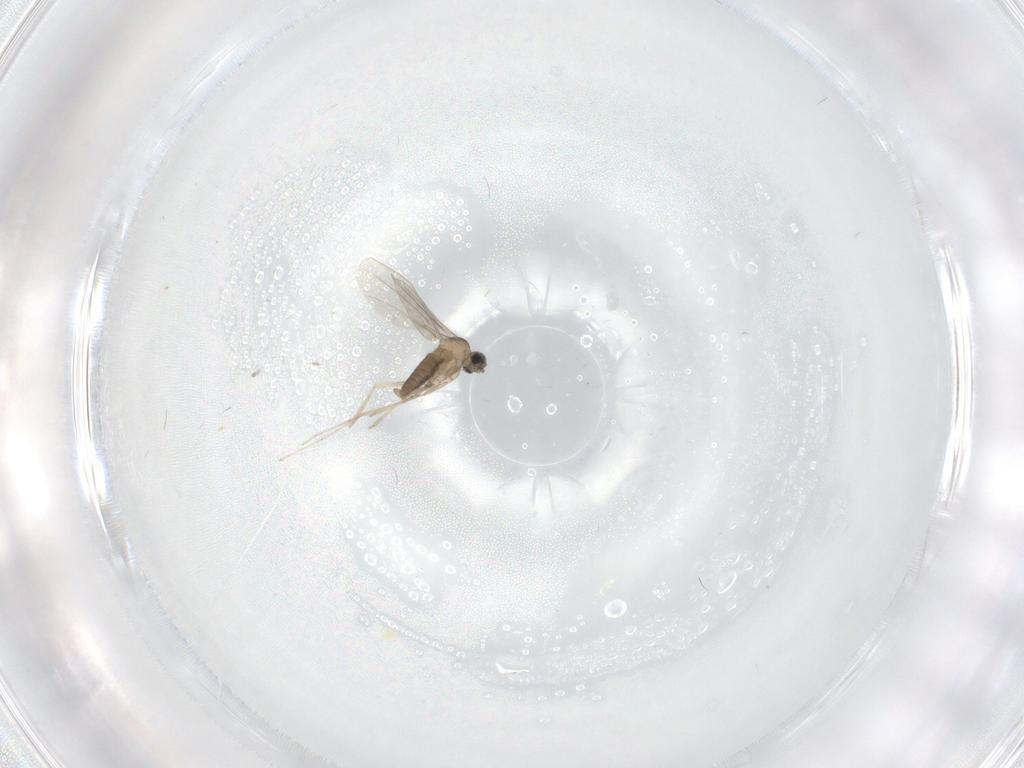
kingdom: Animalia
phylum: Arthropoda
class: Insecta
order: Diptera
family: Cecidomyiidae
